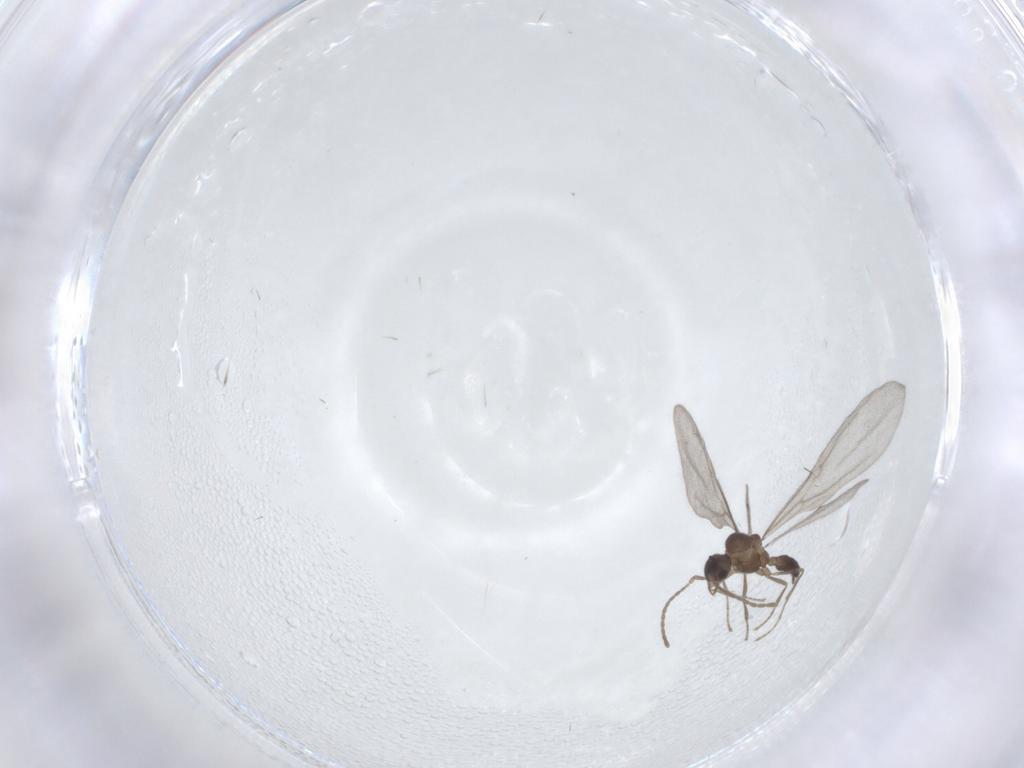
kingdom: Animalia
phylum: Arthropoda
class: Insecta
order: Hymenoptera
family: Formicidae
